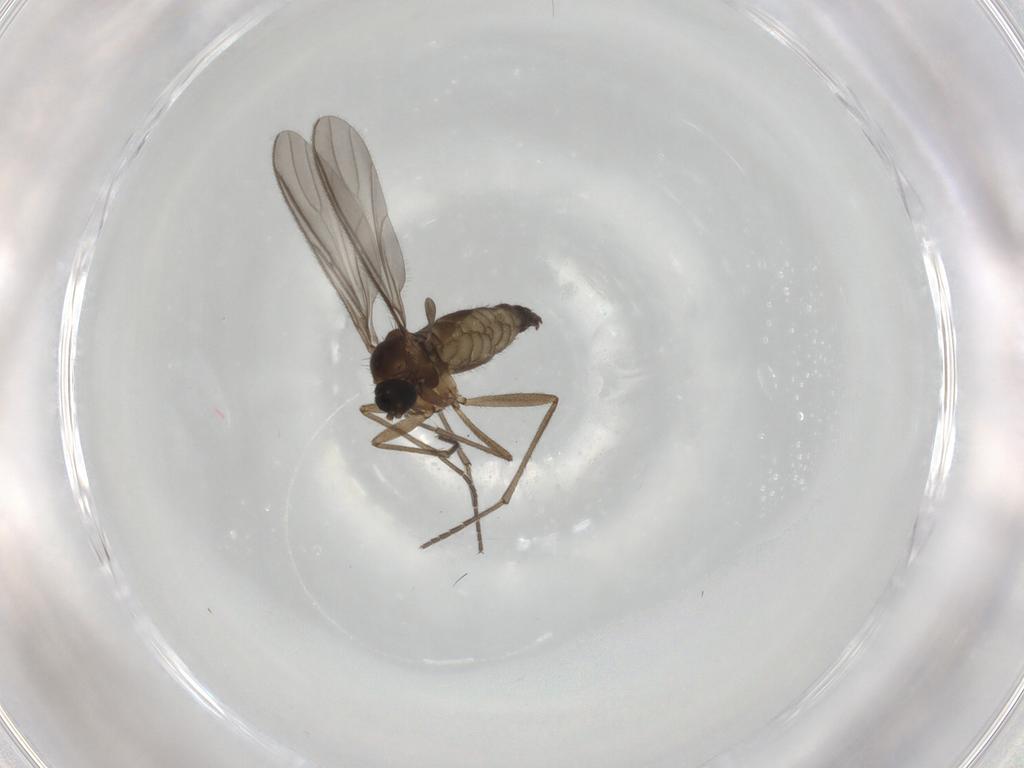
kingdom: Animalia
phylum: Arthropoda
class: Insecta
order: Diptera
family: Sciaridae
